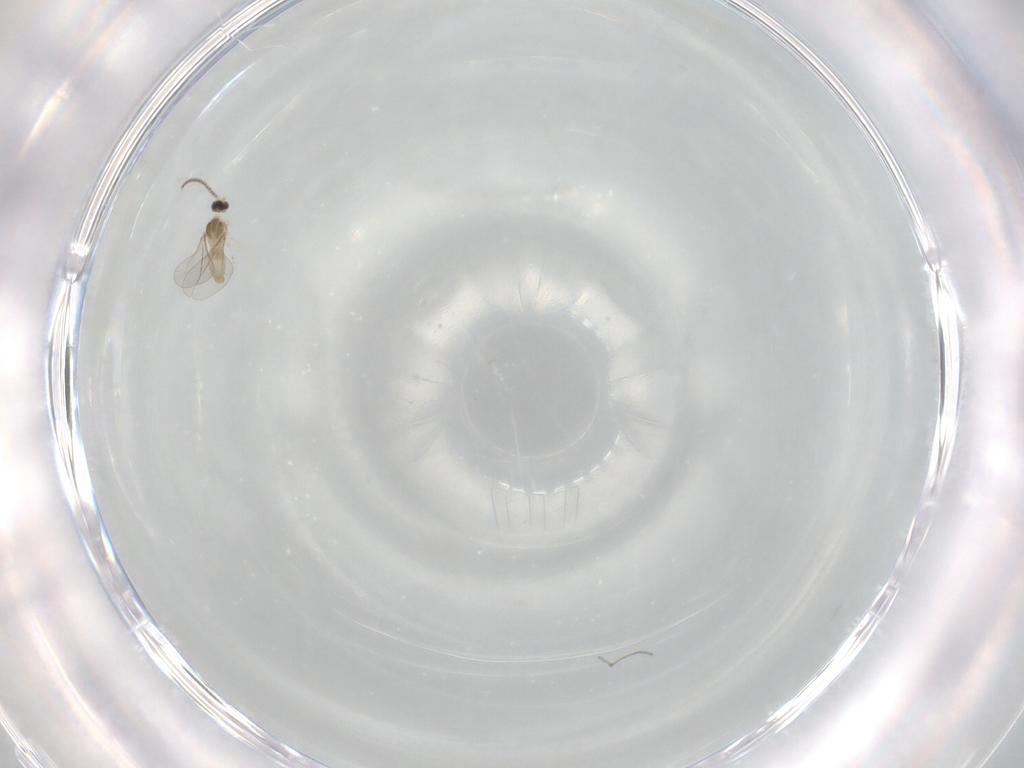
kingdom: Animalia
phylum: Arthropoda
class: Insecta
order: Diptera
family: Cecidomyiidae
